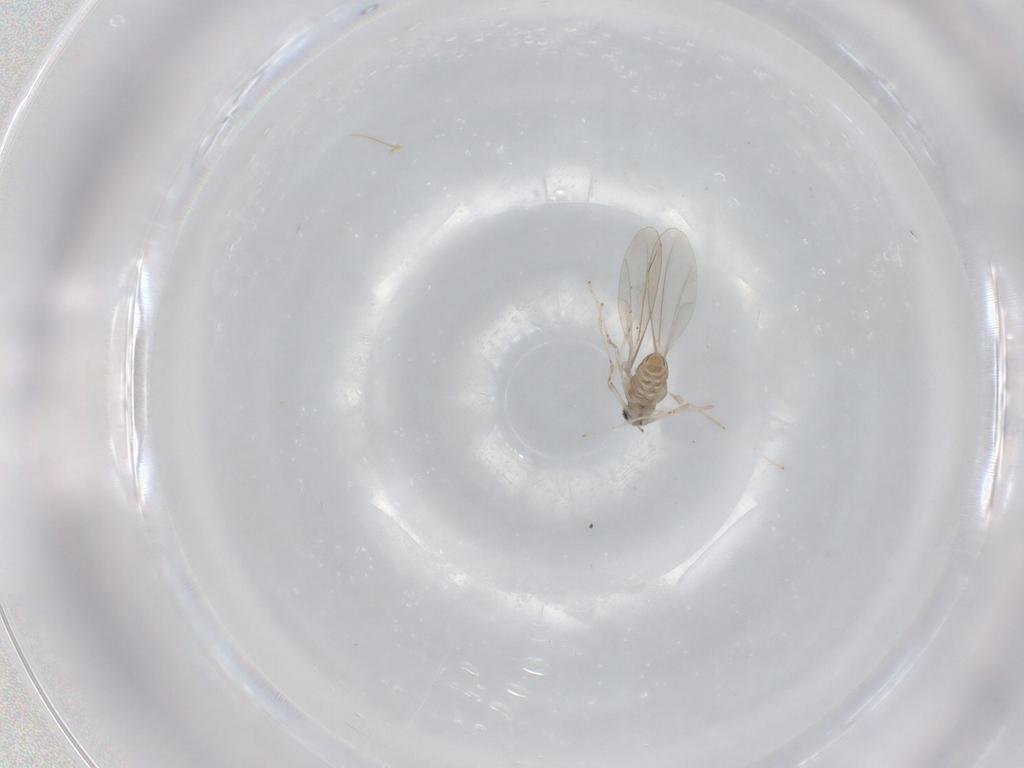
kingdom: Animalia
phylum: Arthropoda
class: Insecta
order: Diptera
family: Cecidomyiidae
